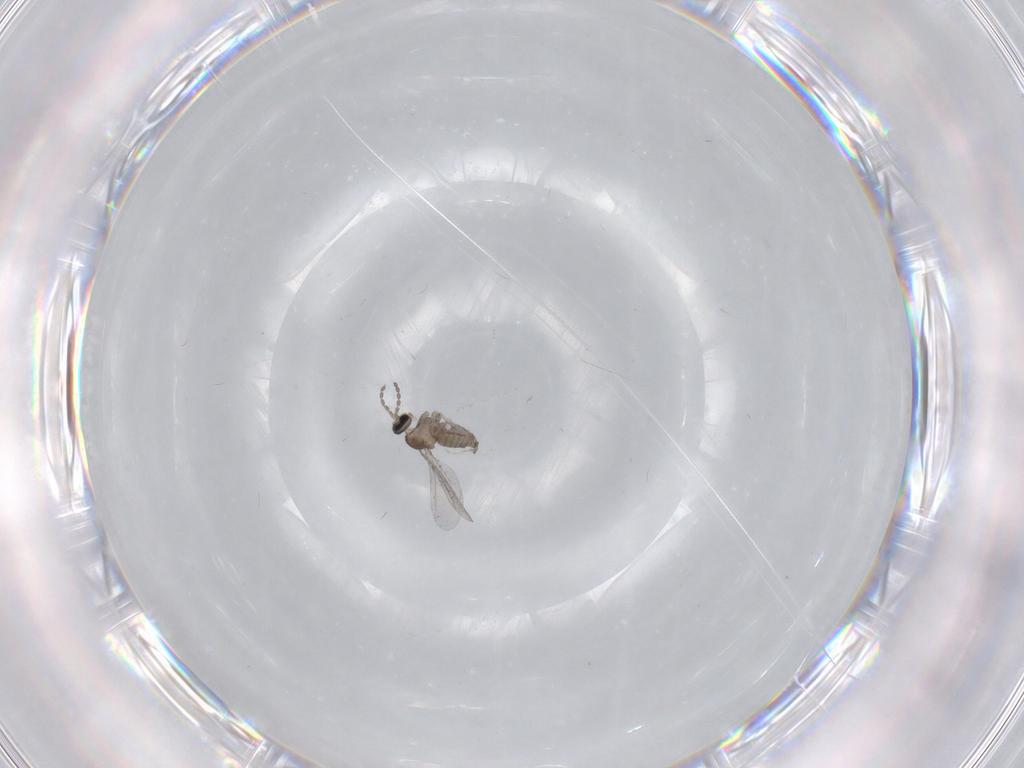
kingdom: Animalia
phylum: Arthropoda
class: Insecta
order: Diptera
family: Cecidomyiidae
